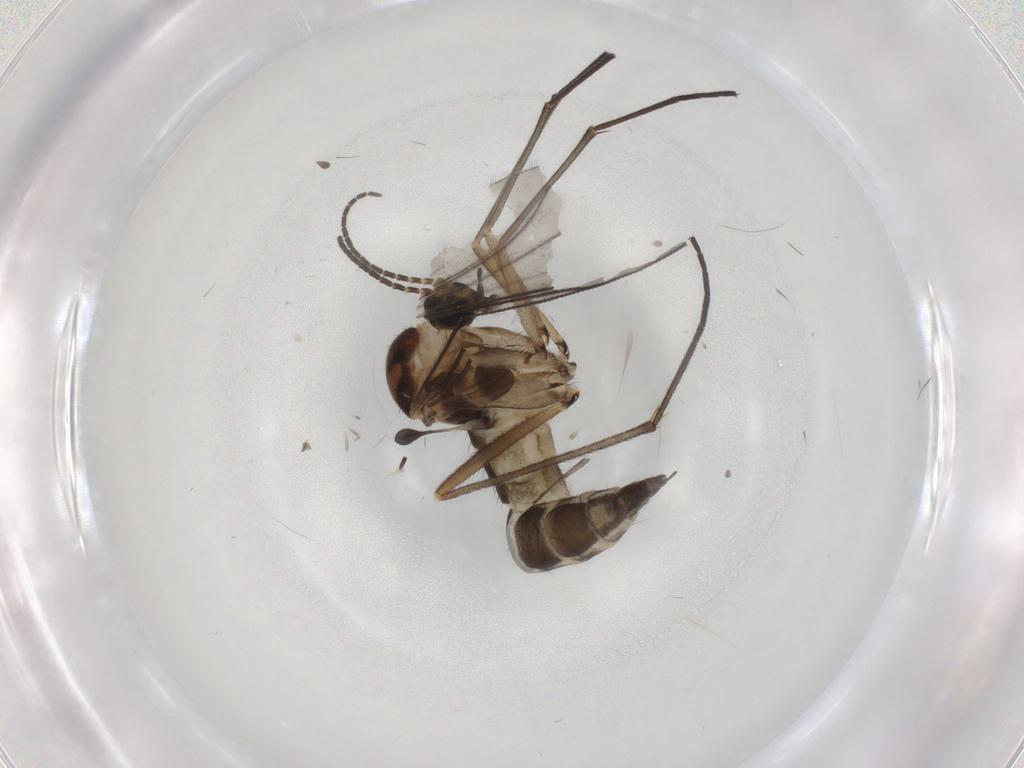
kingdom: Animalia
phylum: Arthropoda
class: Insecta
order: Diptera
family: Sciaridae
